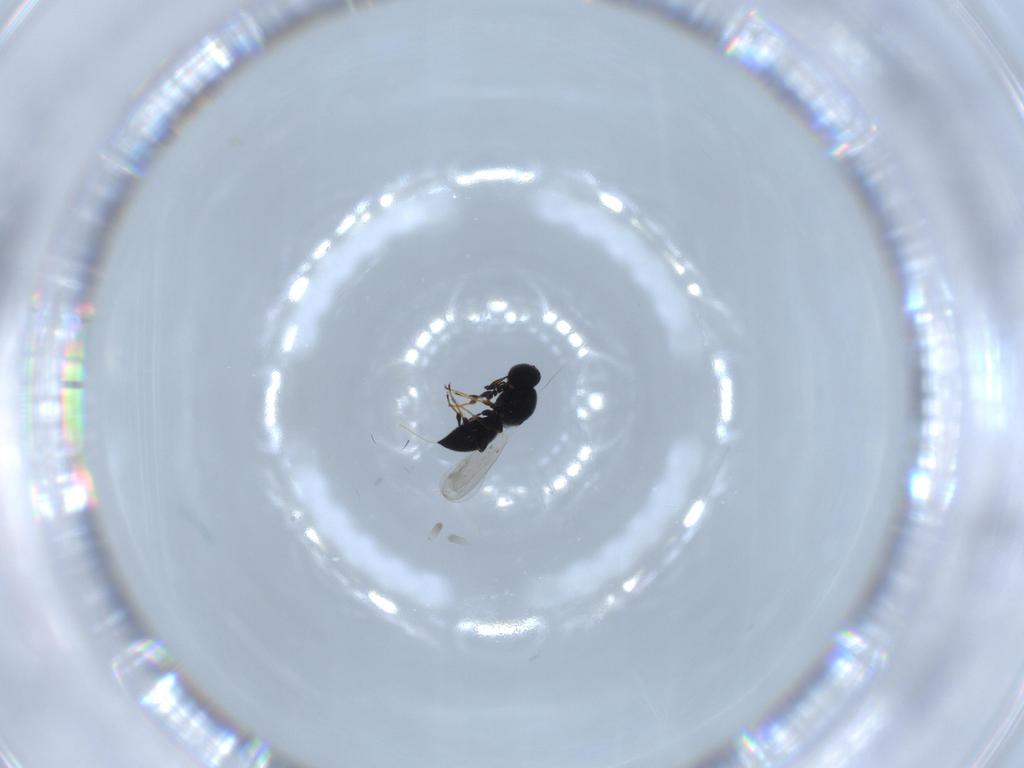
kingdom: Animalia
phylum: Arthropoda
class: Insecta
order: Hymenoptera
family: Platygastridae
